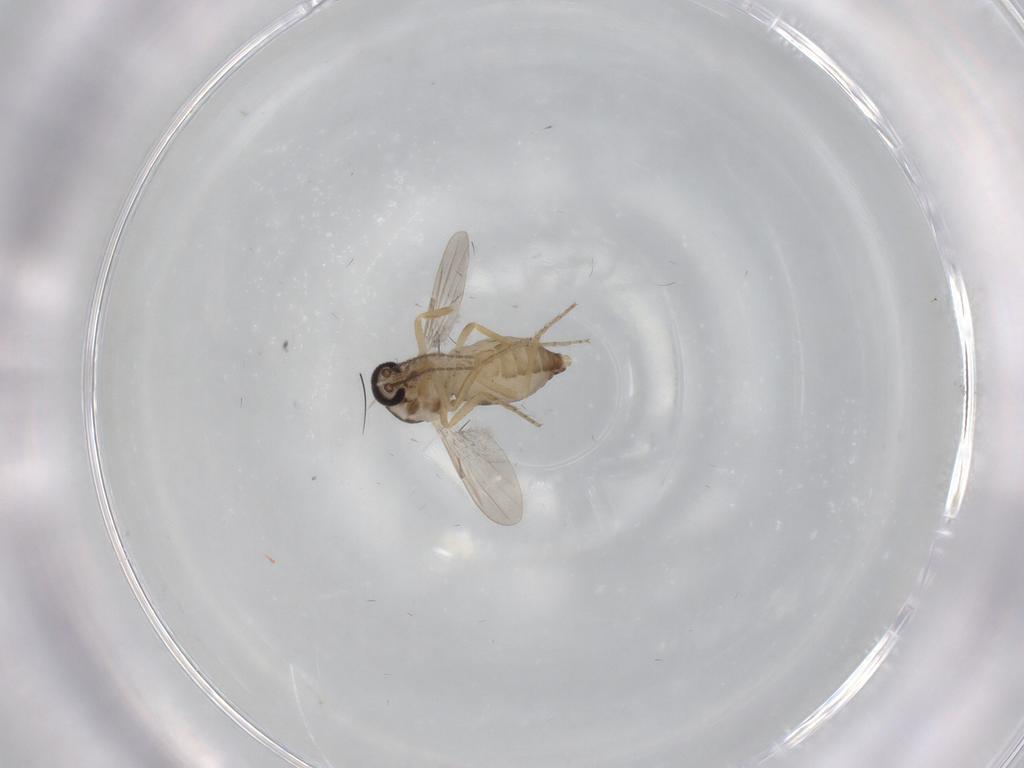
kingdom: Animalia
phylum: Arthropoda
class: Insecta
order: Diptera
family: Ceratopogonidae
